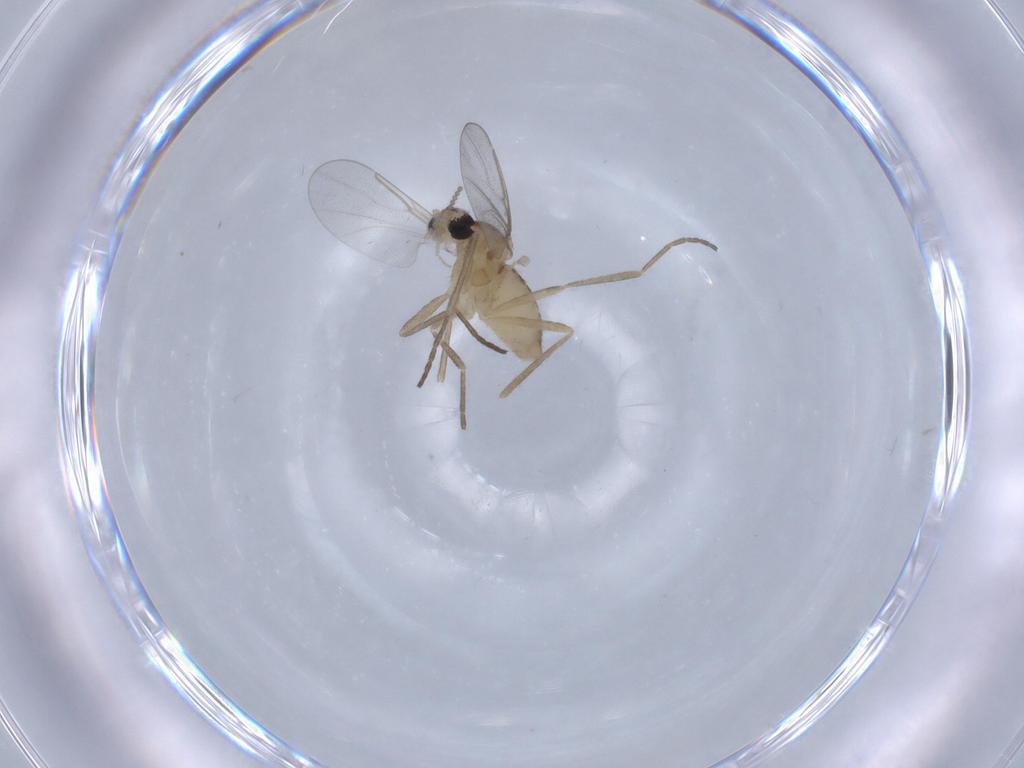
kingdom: Animalia
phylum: Arthropoda
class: Insecta
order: Diptera
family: Cecidomyiidae
